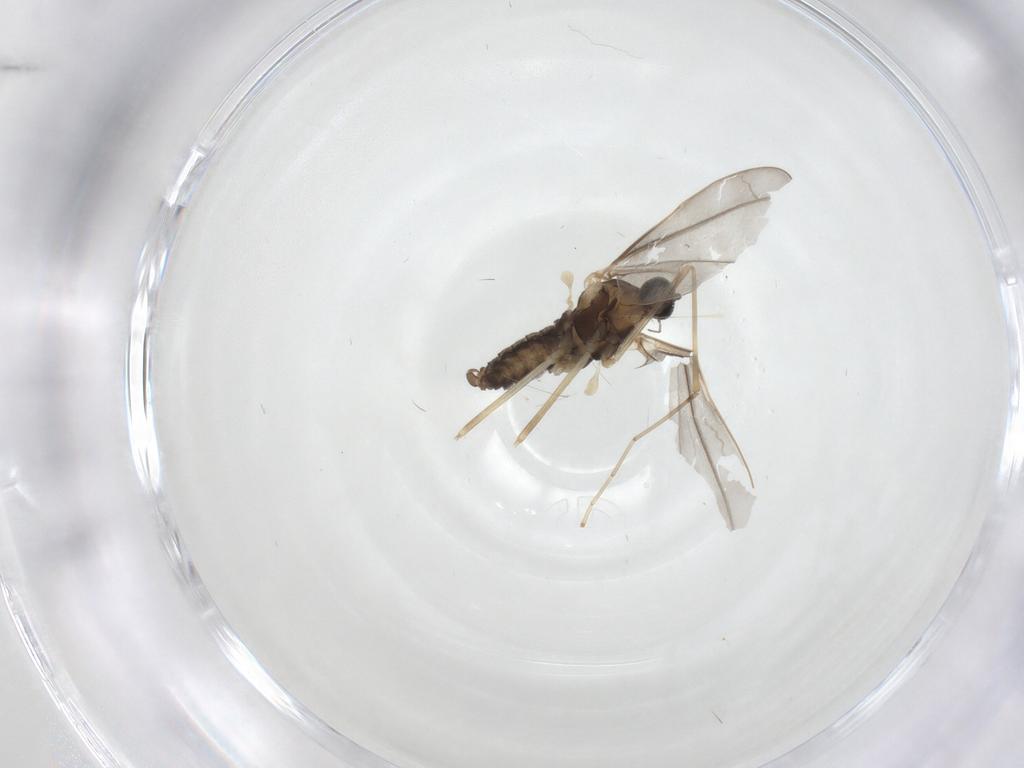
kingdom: Animalia
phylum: Arthropoda
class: Insecta
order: Diptera
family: Cecidomyiidae
